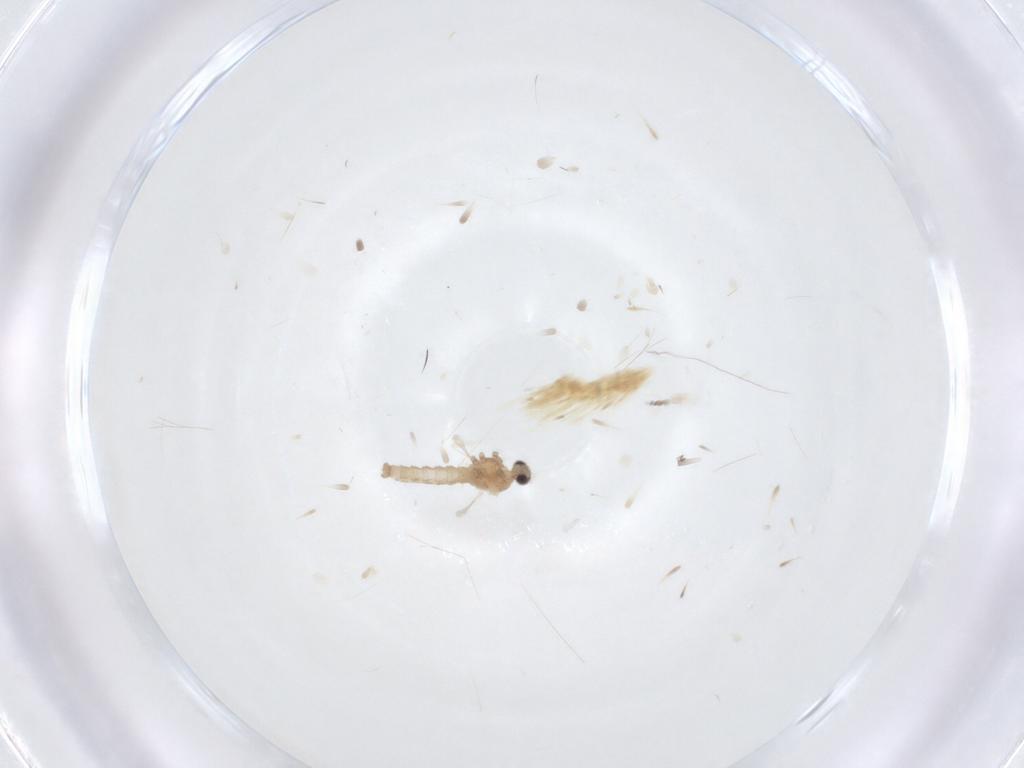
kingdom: Animalia
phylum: Arthropoda
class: Insecta
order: Diptera
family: Cecidomyiidae
